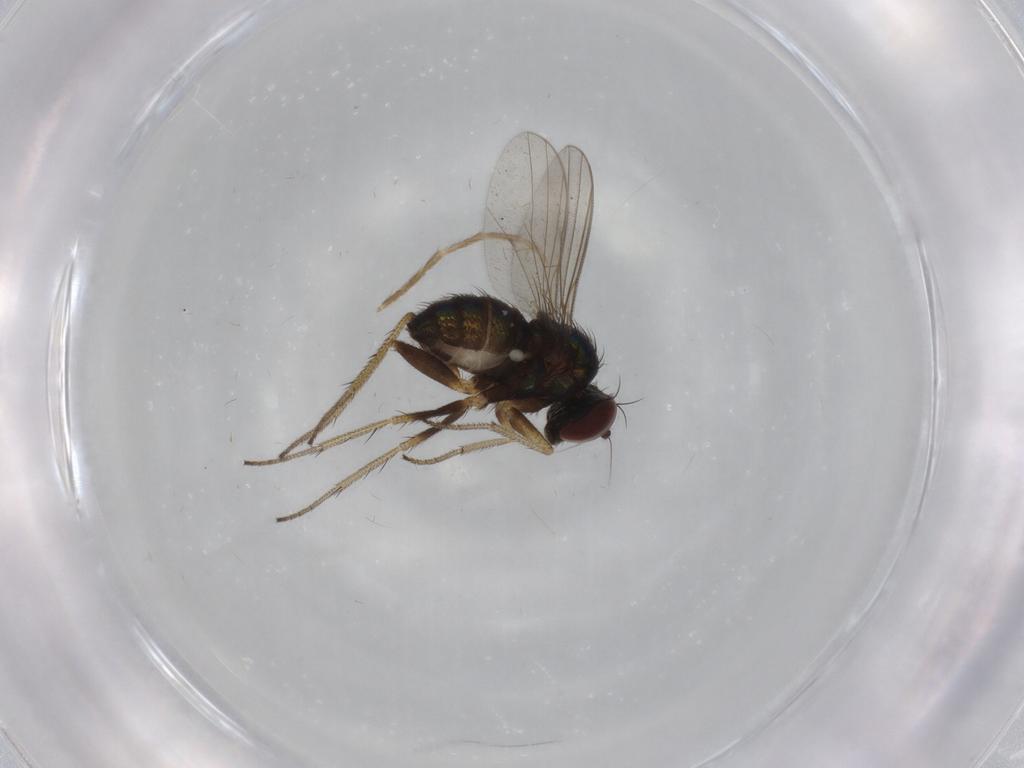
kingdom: Animalia
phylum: Arthropoda
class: Insecta
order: Diptera
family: Chironomidae
